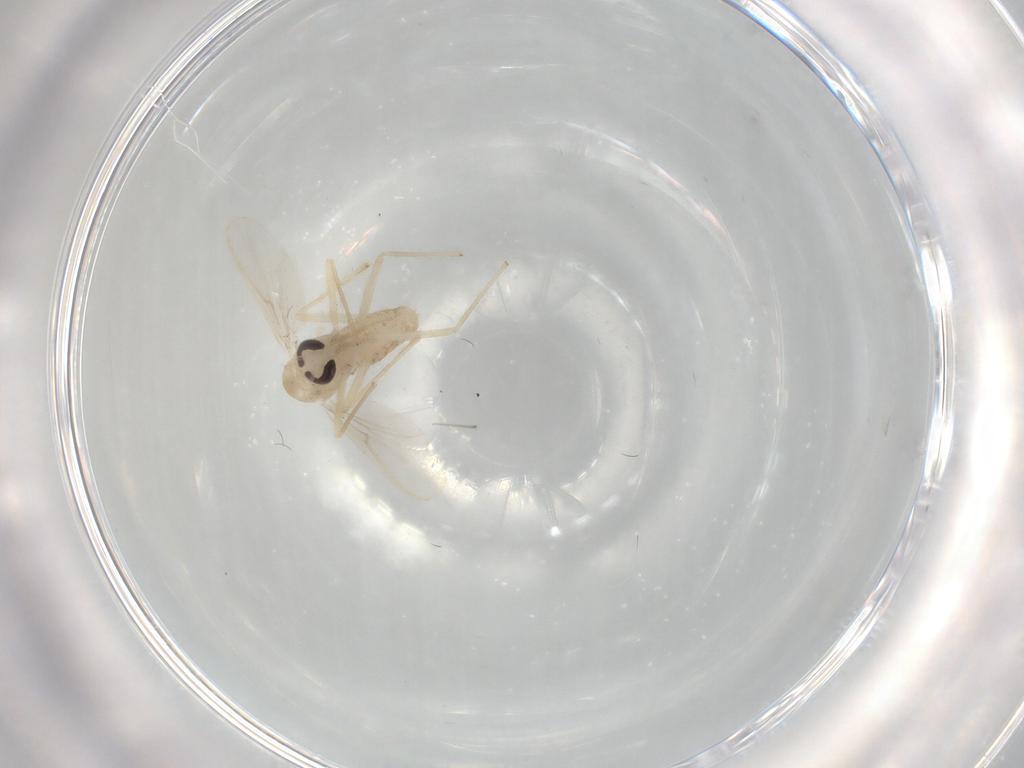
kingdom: Animalia
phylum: Arthropoda
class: Insecta
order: Diptera
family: Chironomidae
